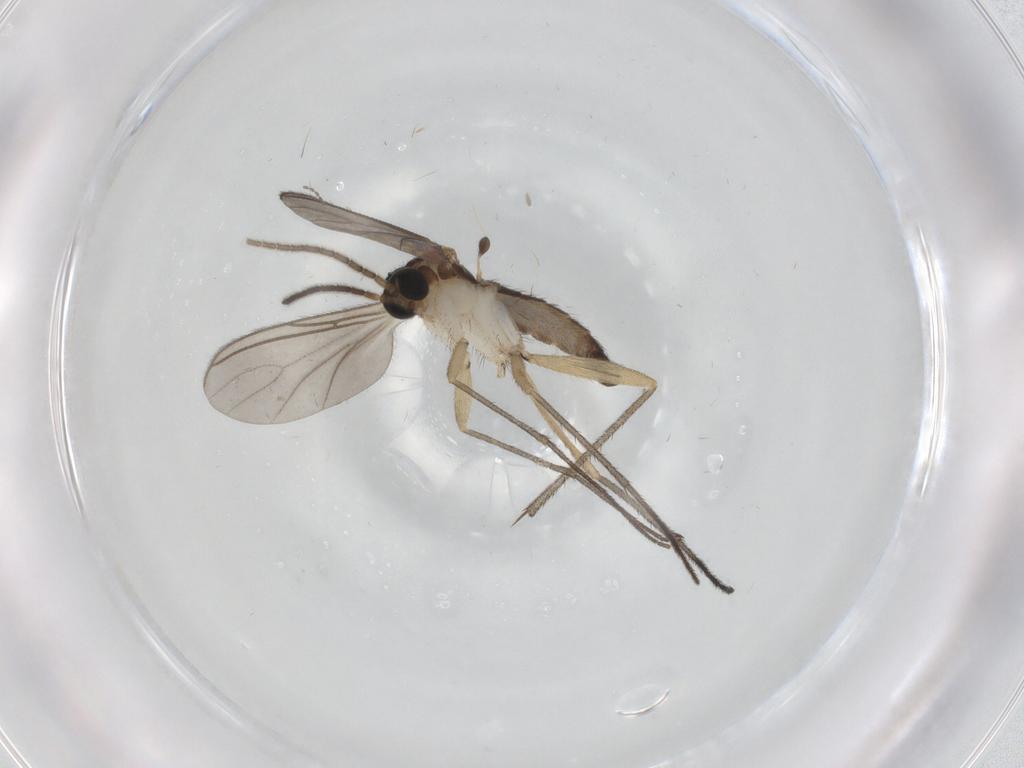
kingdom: Animalia
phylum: Arthropoda
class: Insecta
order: Diptera
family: Sciaridae
